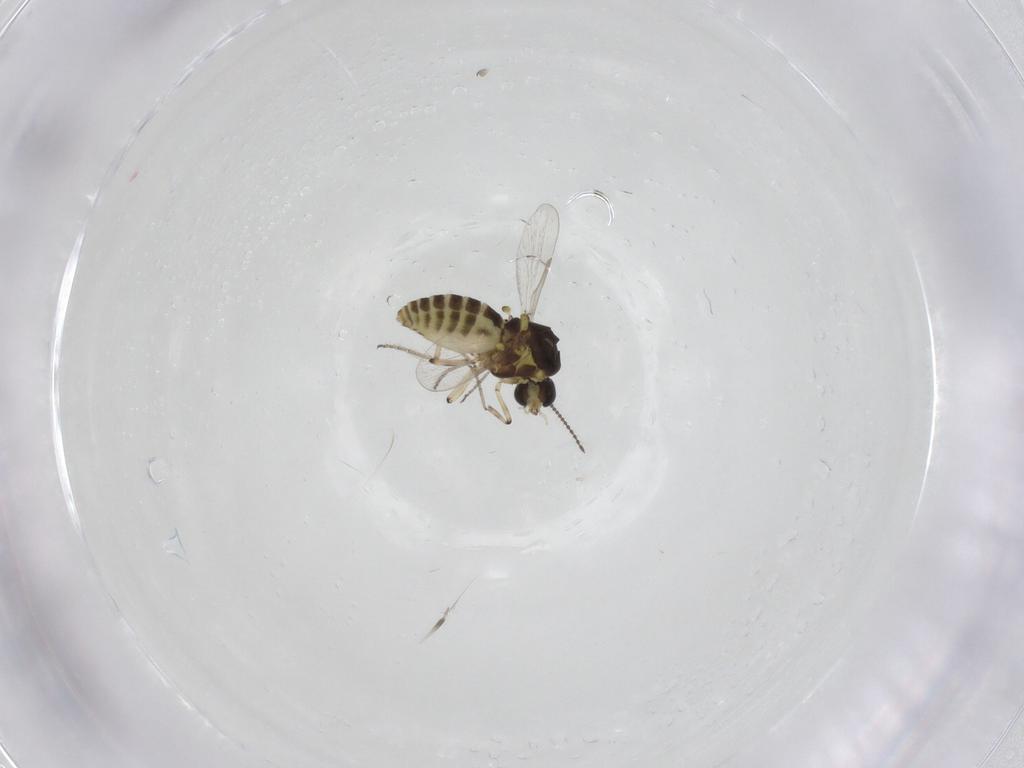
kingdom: Animalia
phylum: Arthropoda
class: Insecta
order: Diptera
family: Ceratopogonidae
